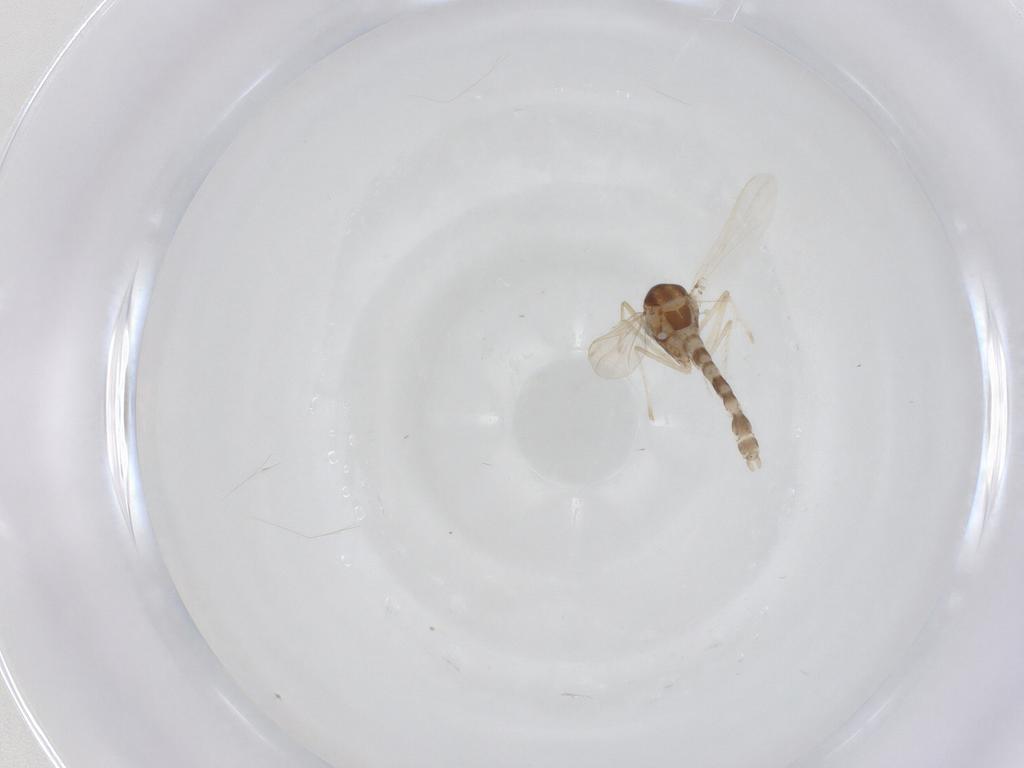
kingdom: Animalia
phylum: Arthropoda
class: Insecta
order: Diptera
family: Chironomidae
